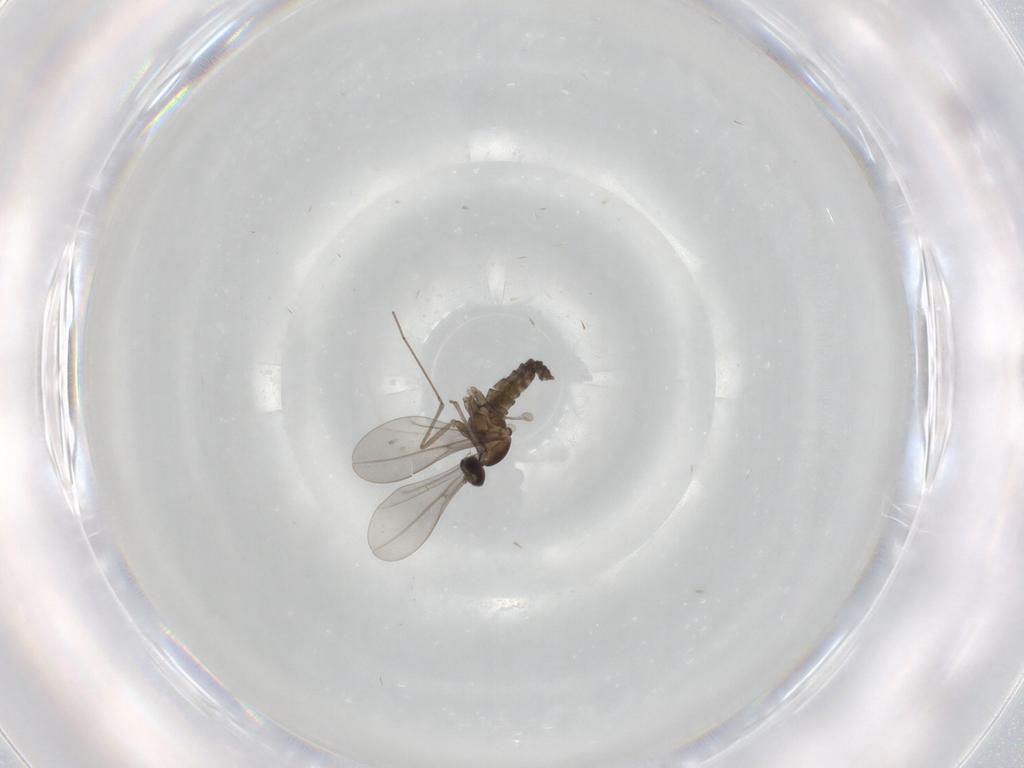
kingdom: Animalia
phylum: Arthropoda
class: Insecta
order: Diptera
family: Cecidomyiidae
